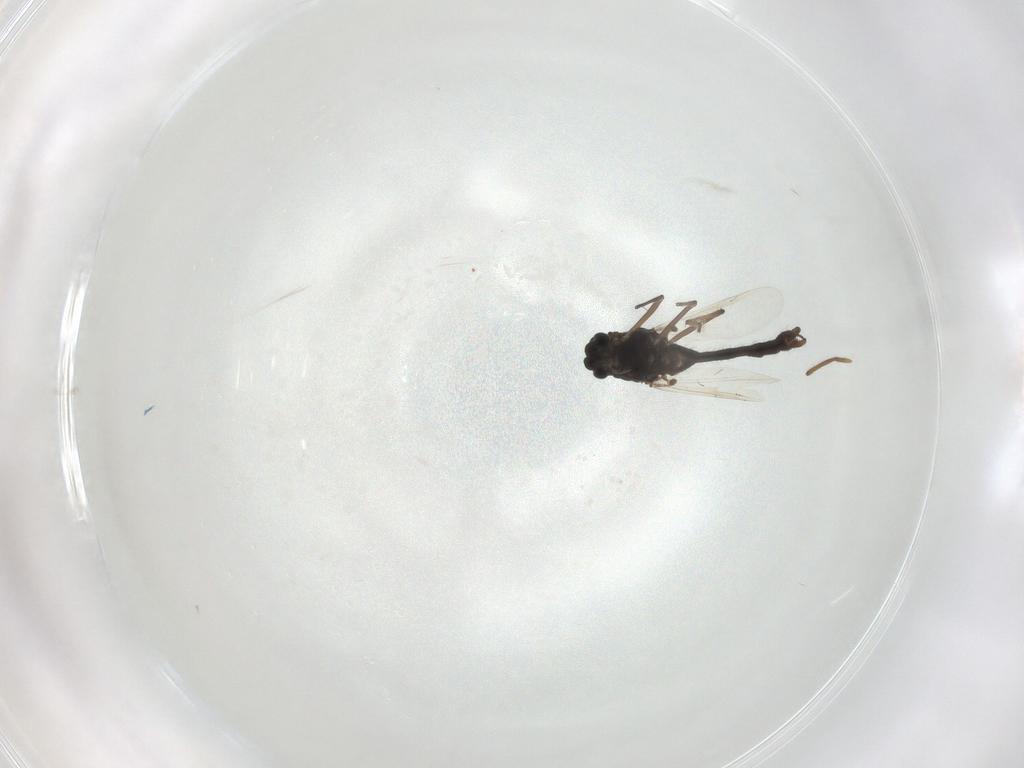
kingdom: Animalia
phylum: Arthropoda
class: Insecta
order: Diptera
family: Chironomidae
